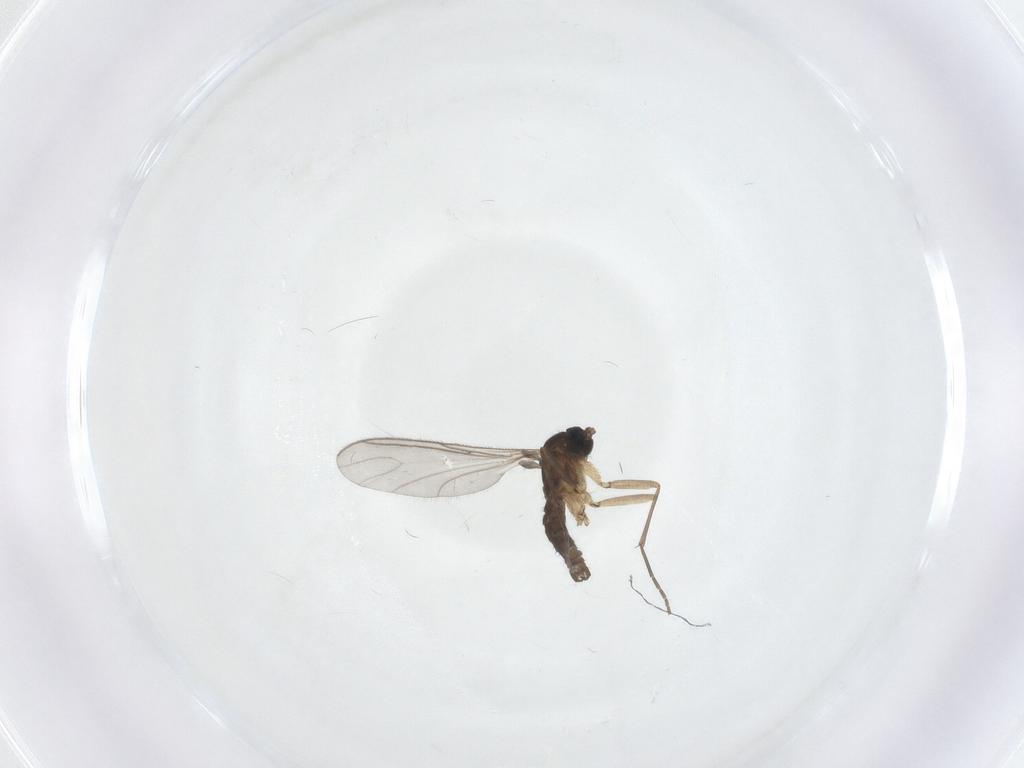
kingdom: Animalia
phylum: Arthropoda
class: Insecta
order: Diptera
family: Sciaridae
